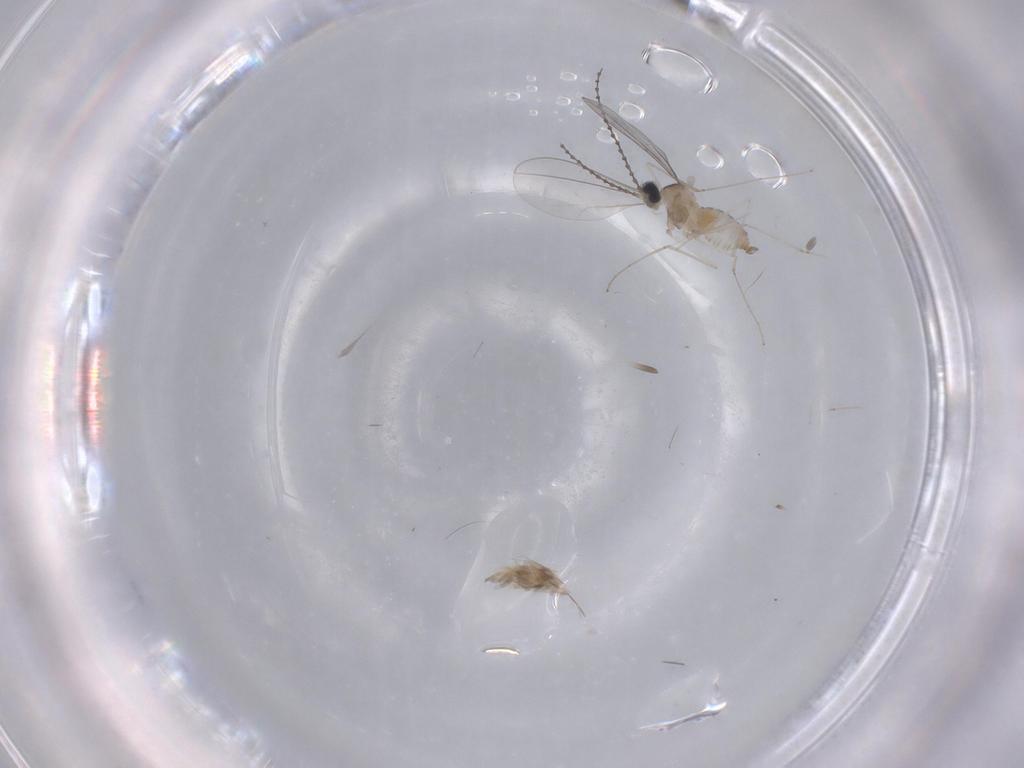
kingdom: Animalia
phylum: Arthropoda
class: Insecta
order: Diptera
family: Cecidomyiidae
